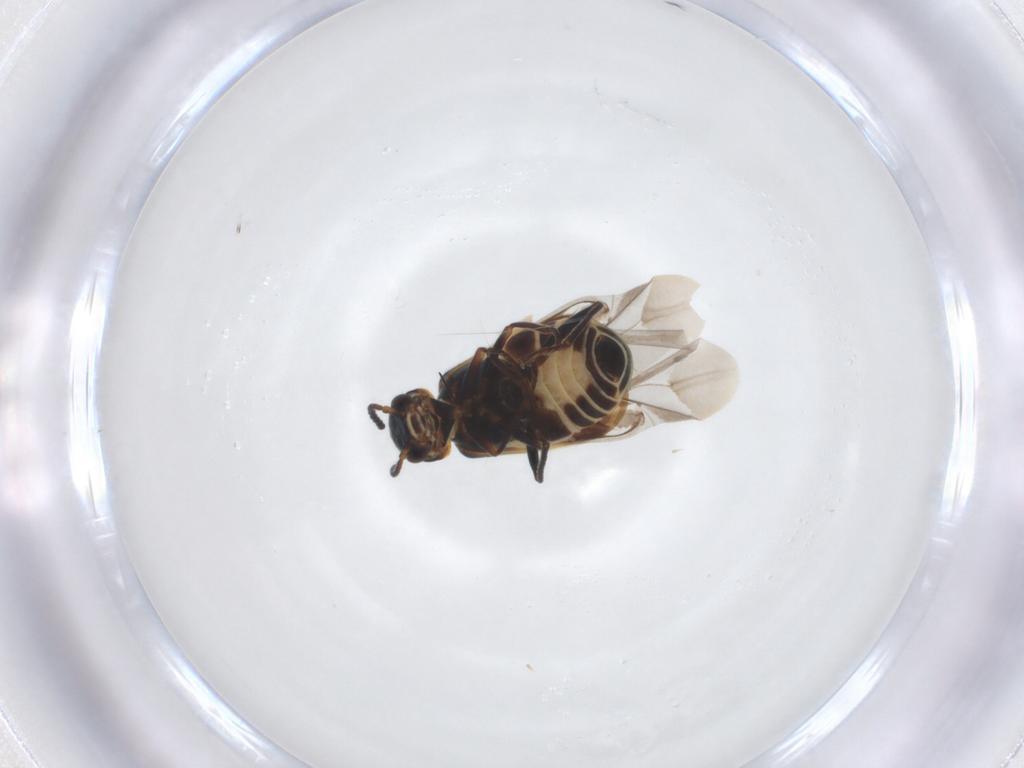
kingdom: Animalia
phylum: Arthropoda
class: Insecta
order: Coleoptera
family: Melyridae
